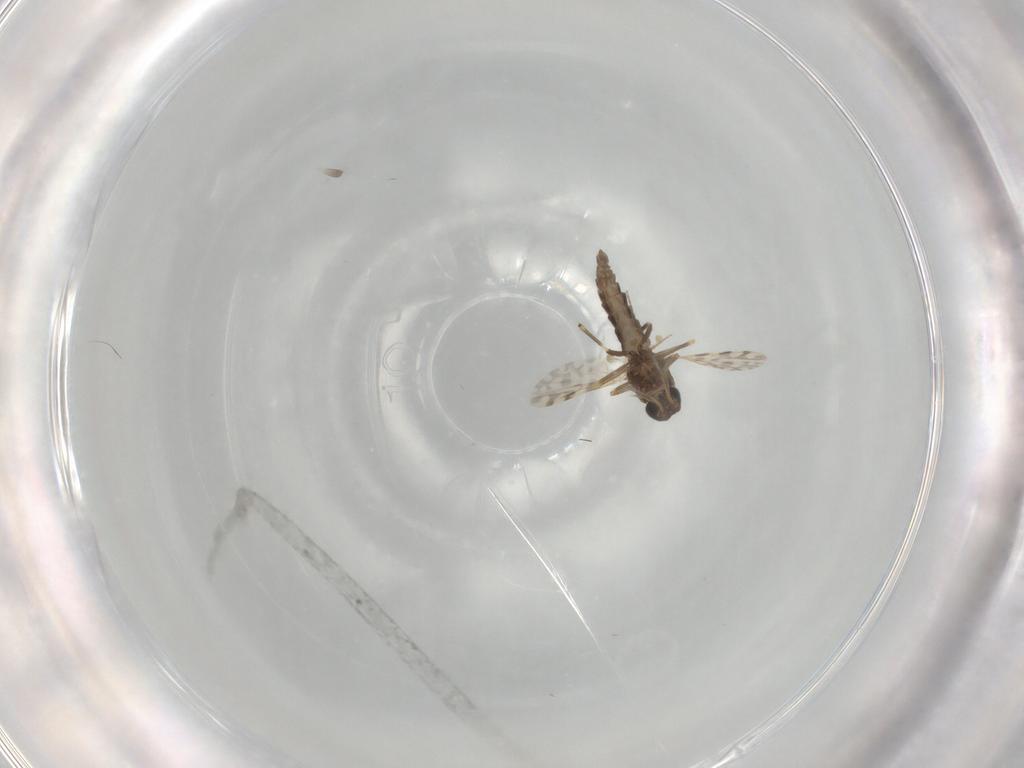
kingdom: Animalia
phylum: Arthropoda
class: Insecta
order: Diptera
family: Ceratopogonidae
